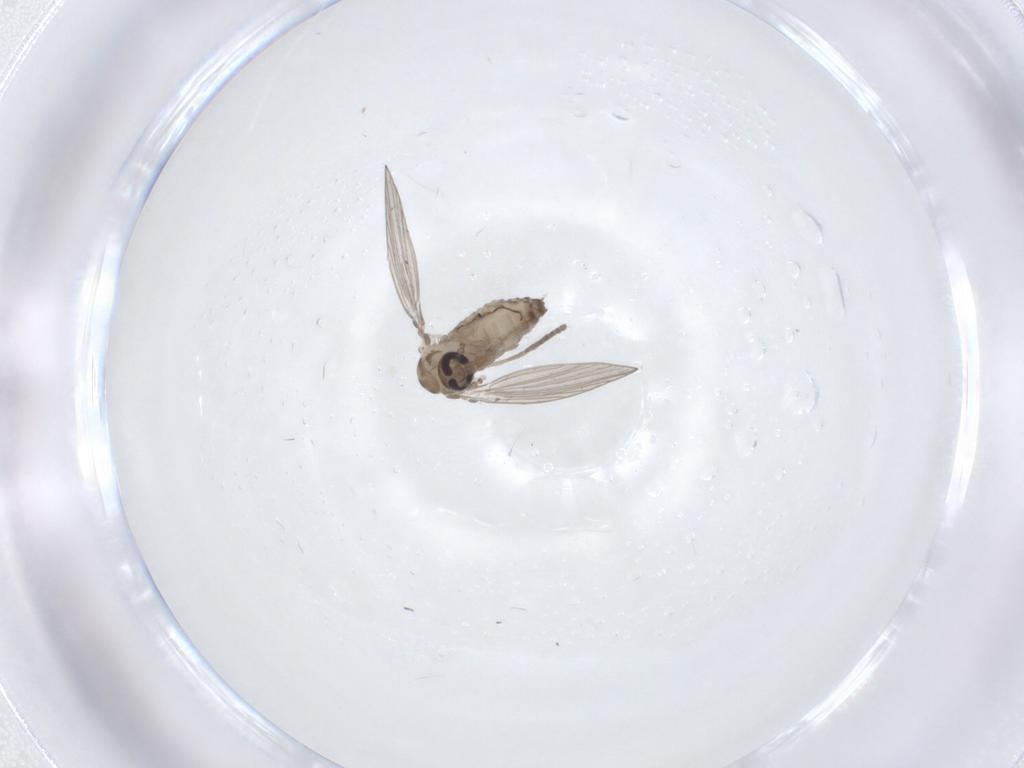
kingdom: Animalia
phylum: Arthropoda
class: Insecta
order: Diptera
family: Psychodidae
